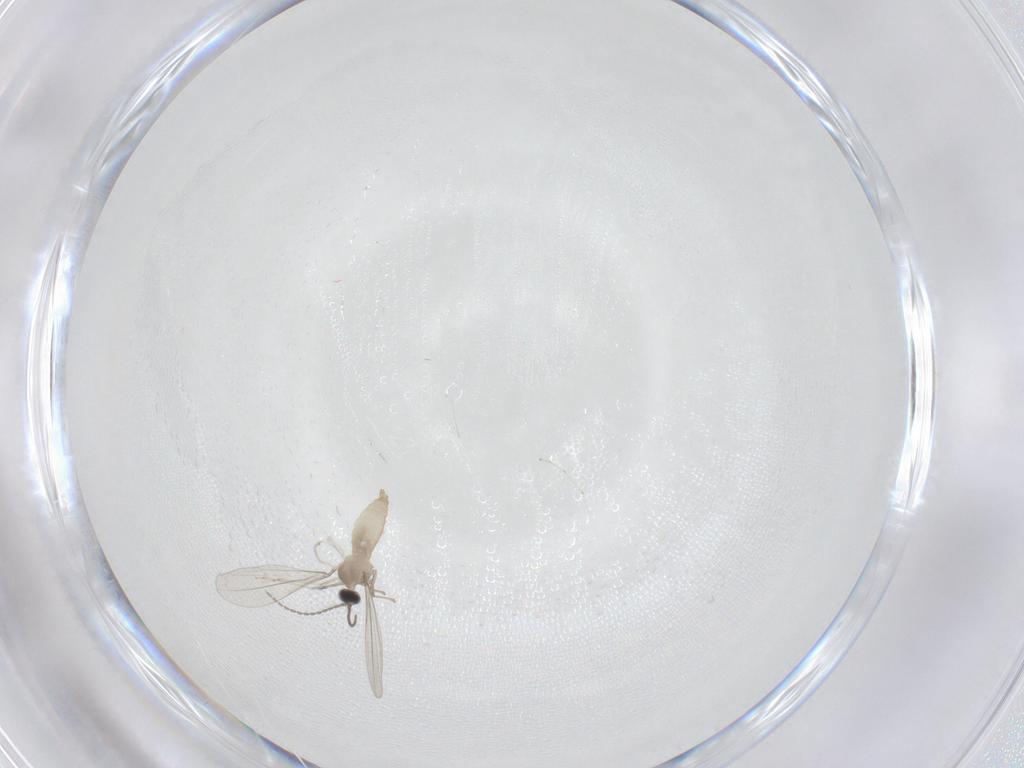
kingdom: Animalia
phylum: Arthropoda
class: Insecta
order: Diptera
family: Cecidomyiidae
